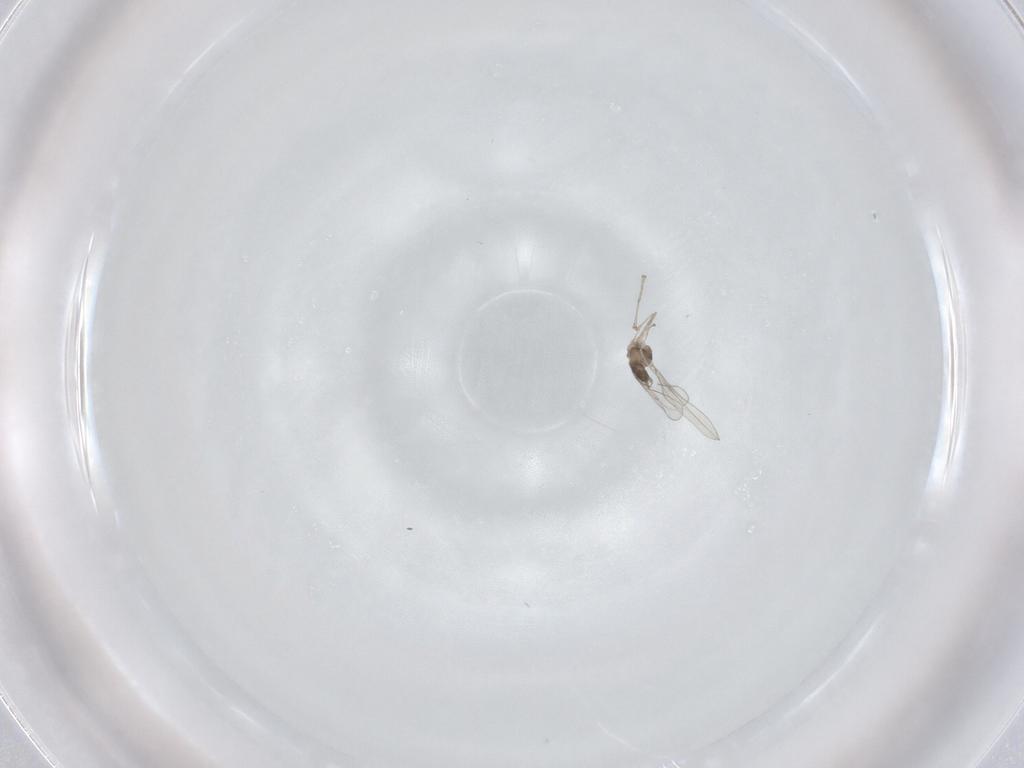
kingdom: Animalia
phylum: Arthropoda
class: Insecta
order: Diptera
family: Cecidomyiidae
